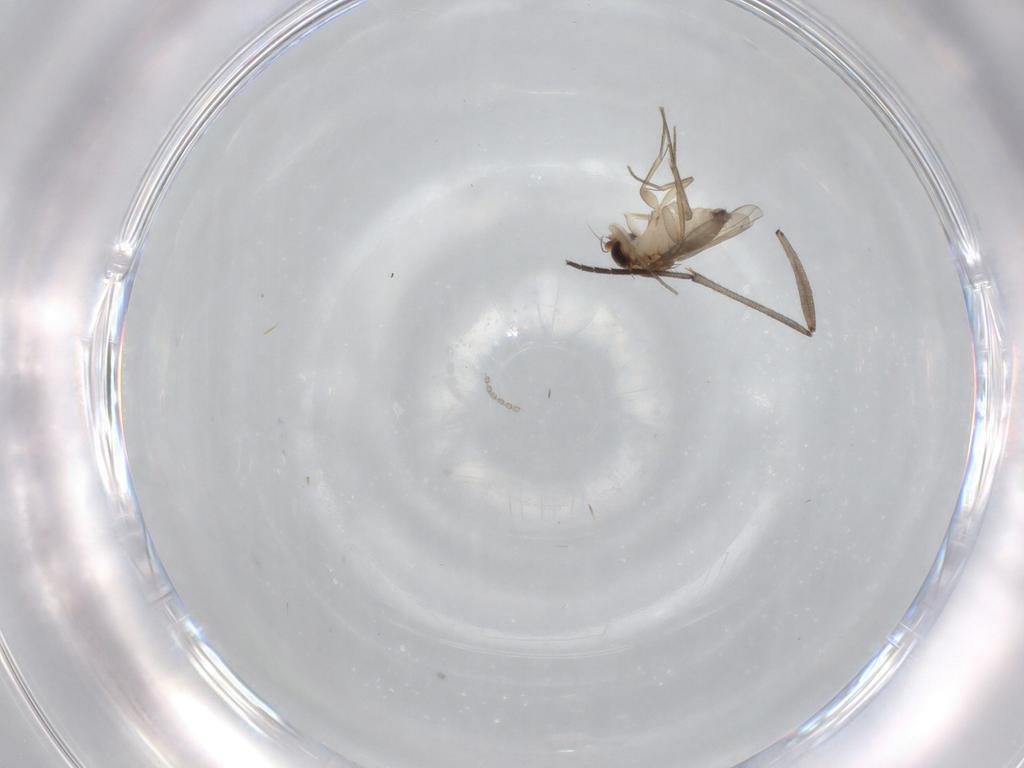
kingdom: Animalia
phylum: Arthropoda
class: Insecta
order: Diptera
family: Phoridae
